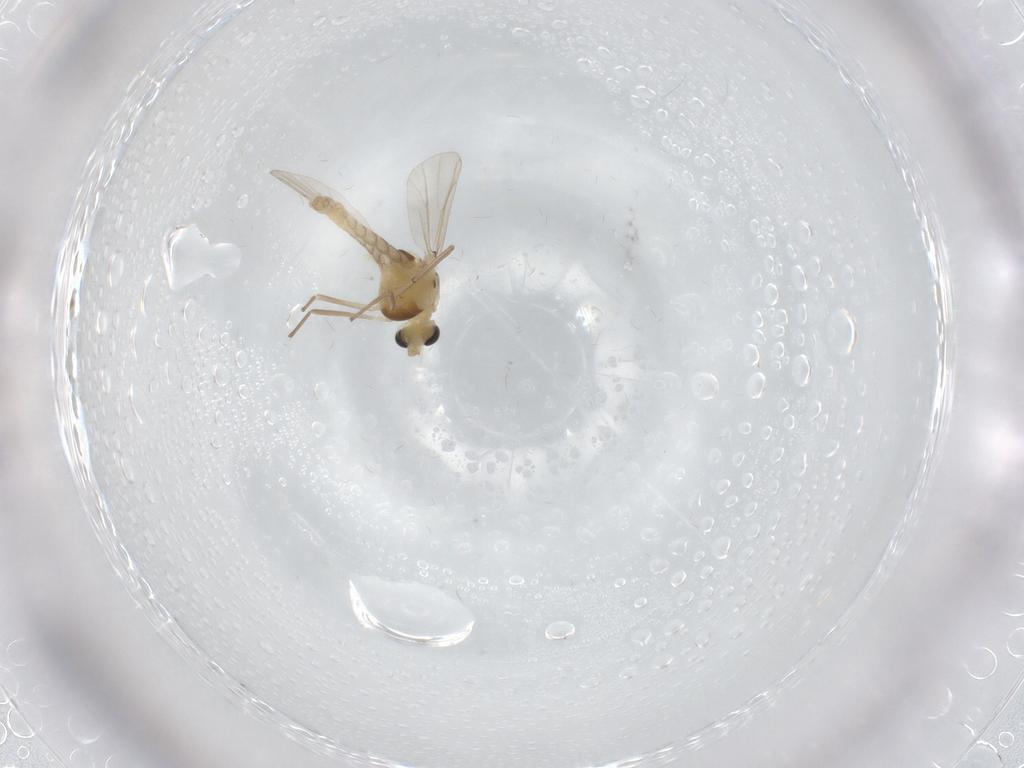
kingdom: Animalia
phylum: Arthropoda
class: Insecta
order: Diptera
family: Chironomidae
